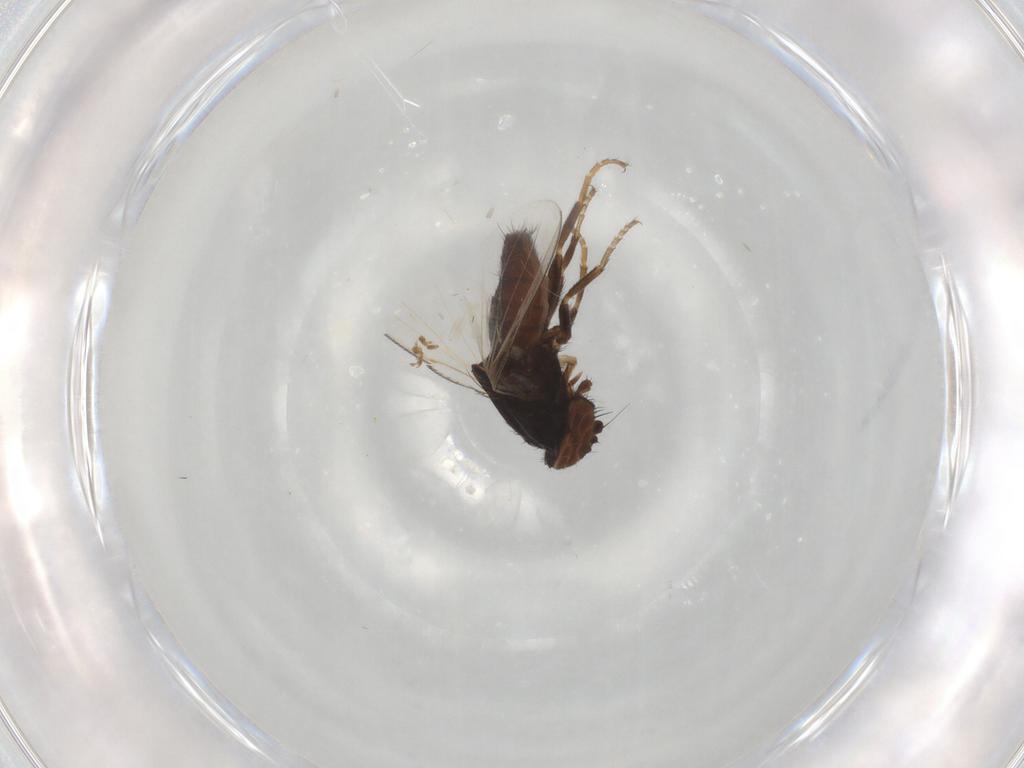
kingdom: Animalia
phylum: Arthropoda
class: Insecta
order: Diptera
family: Milichiidae
